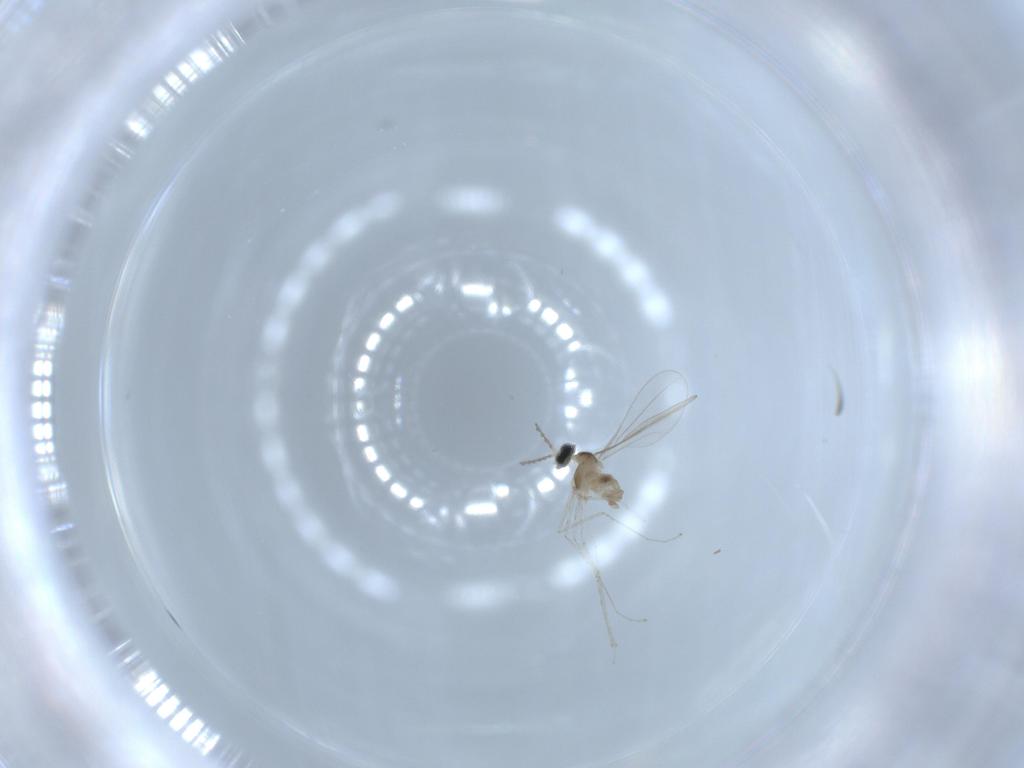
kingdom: Animalia
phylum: Arthropoda
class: Insecta
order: Diptera
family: Cecidomyiidae
